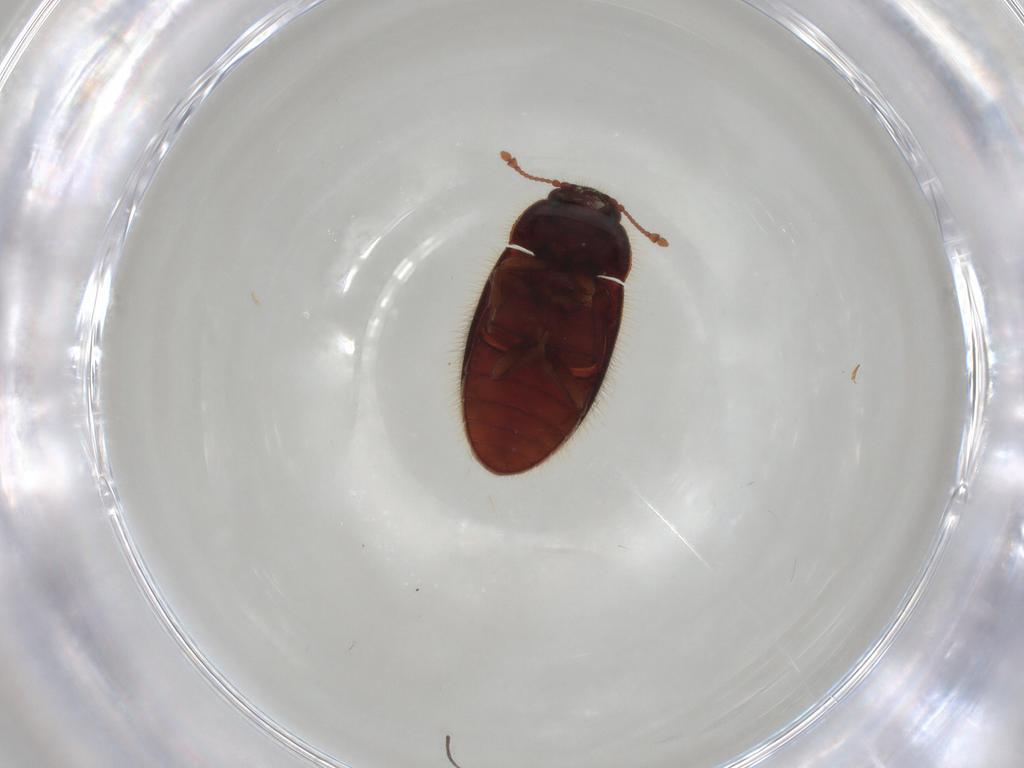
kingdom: Animalia
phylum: Arthropoda
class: Insecta
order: Coleoptera
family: Biphyllidae
